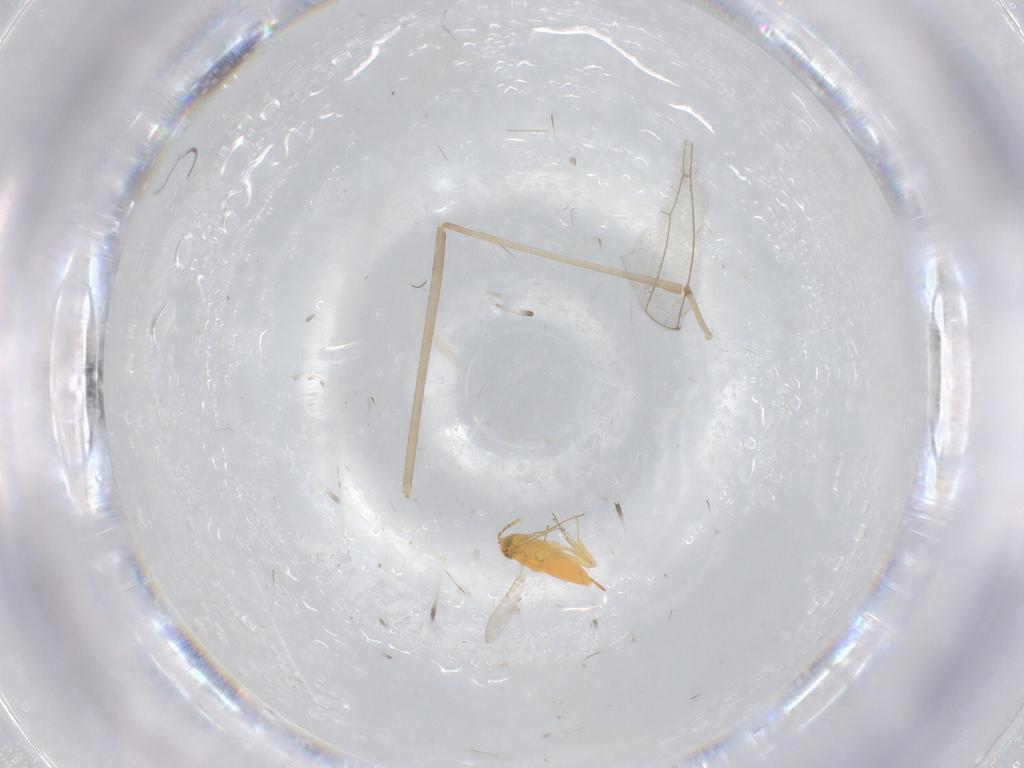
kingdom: Animalia
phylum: Arthropoda
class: Insecta
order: Hymenoptera
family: Aphelinidae
